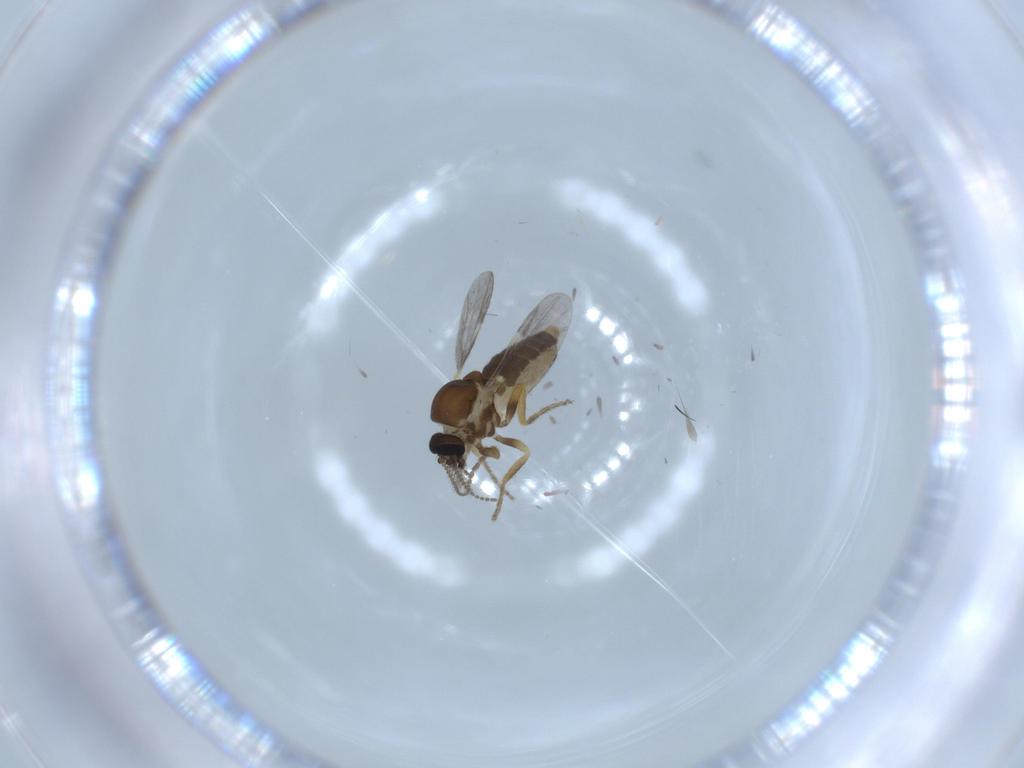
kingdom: Animalia
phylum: Arthropoda
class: Insecta
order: Diptera
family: Ceratopogonidae
